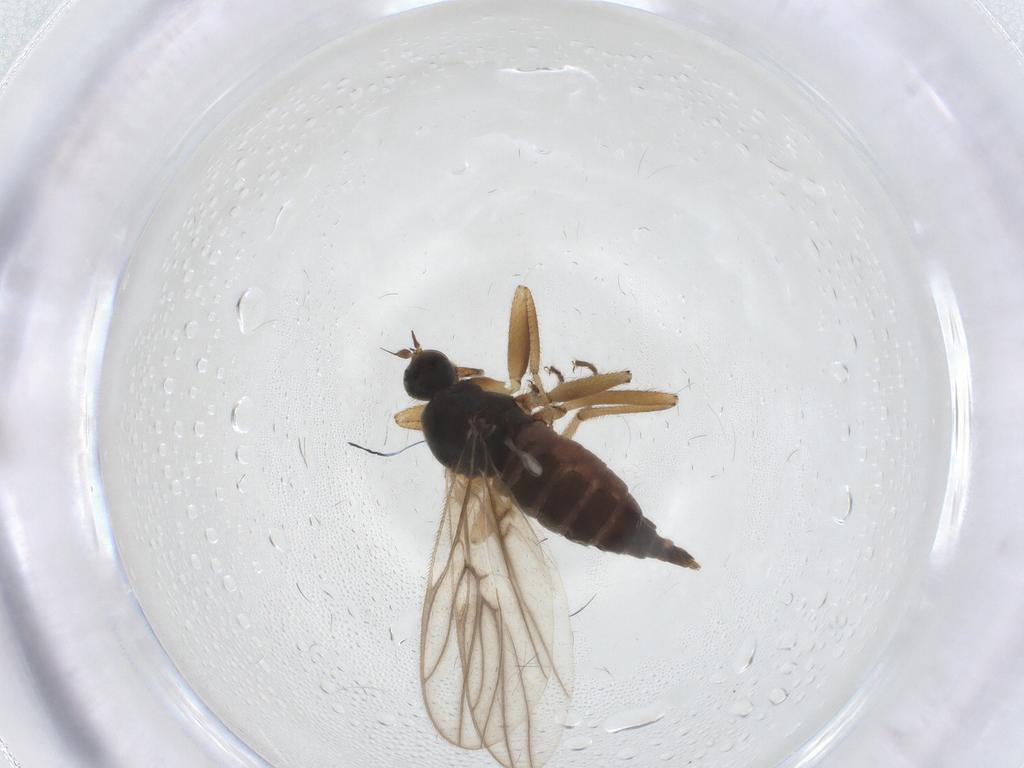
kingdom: Animalia
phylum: Arthropoda
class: Insecta
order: Diptera
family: Hybotidae
